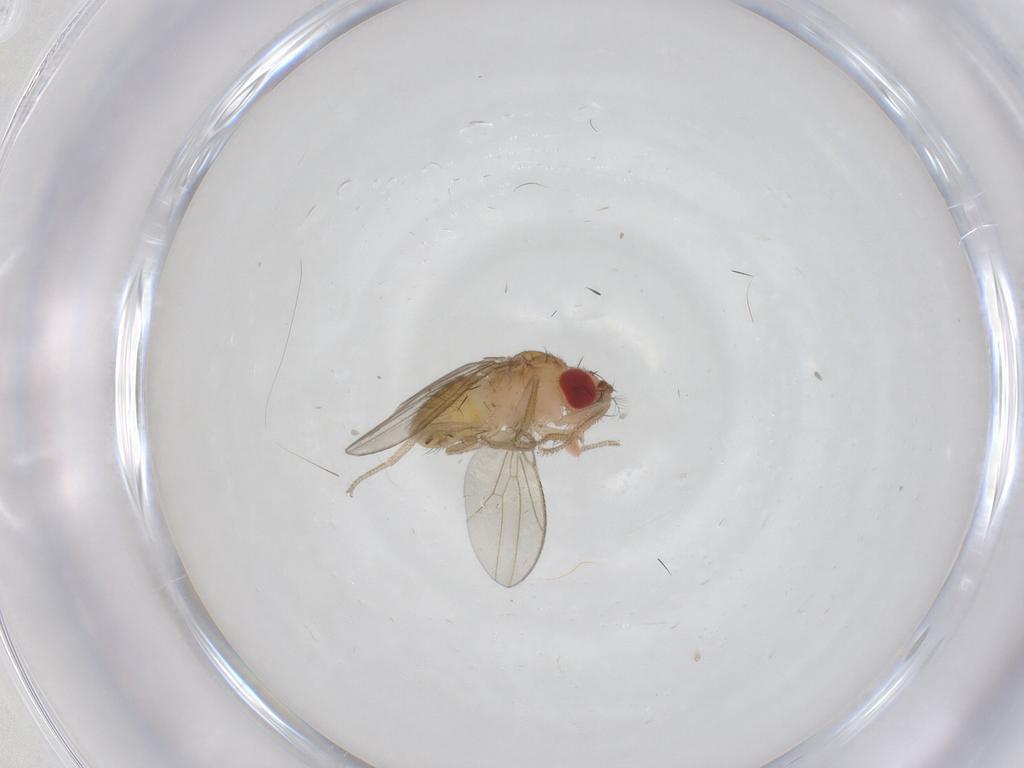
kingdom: Animalia
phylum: Arthropoda
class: Insecta
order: Diptera
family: Drosophilidae
